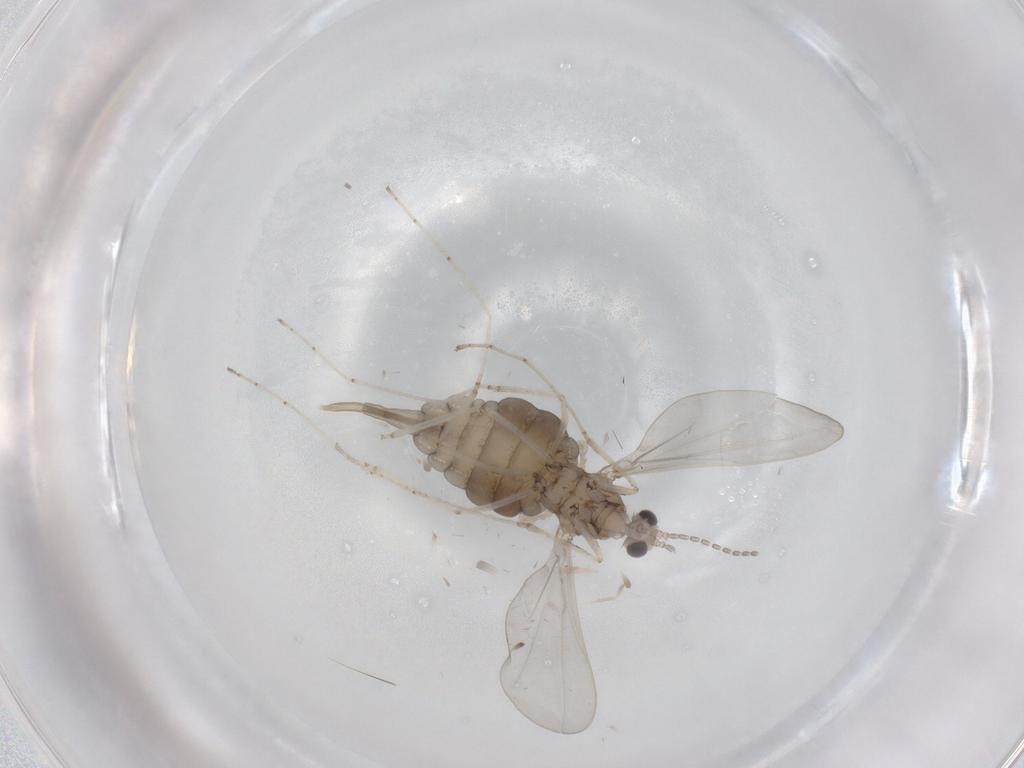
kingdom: Animalia
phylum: Arthropoda
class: Insecta
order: Diptera
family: Cecidomyiidae
